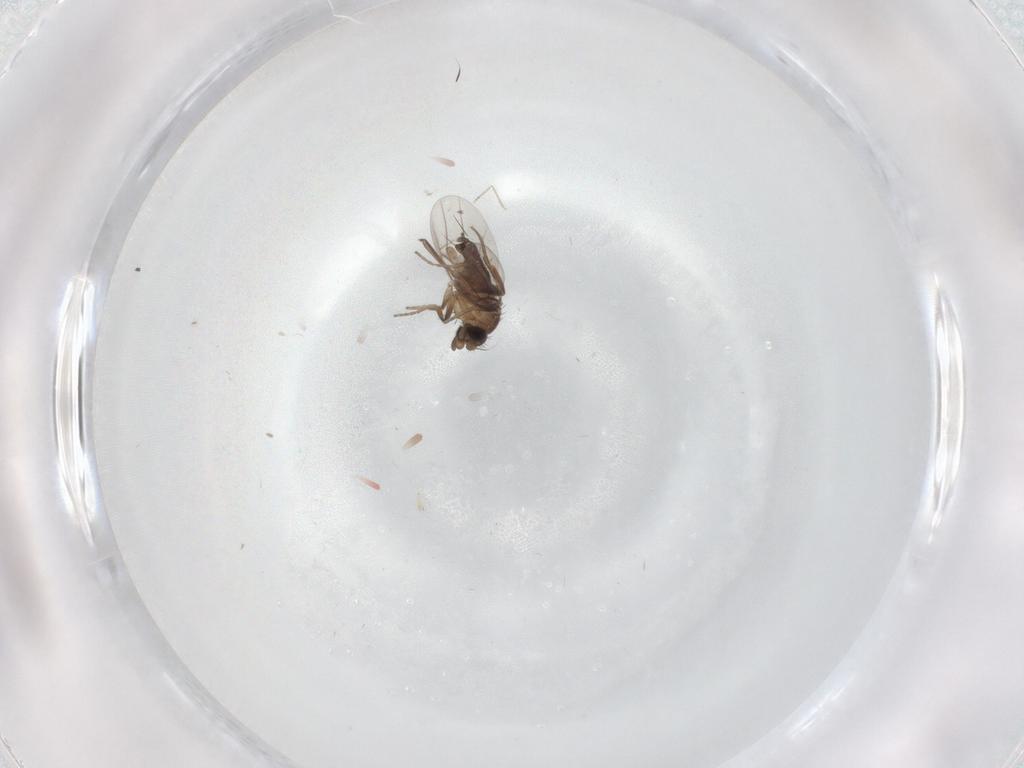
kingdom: Animalia
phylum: Arthropoda
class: Insecta
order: Diptera
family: Phoridae
